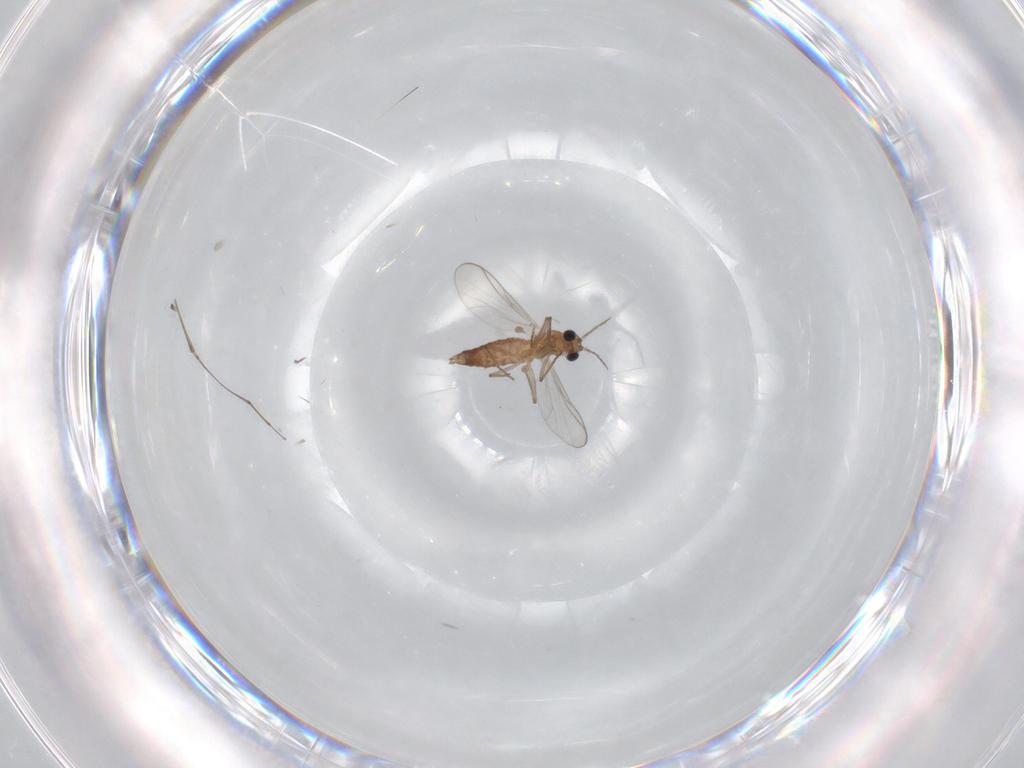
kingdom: Animalia
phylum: Arthropoda
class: Insecta
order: Diptera
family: Chironomidae
